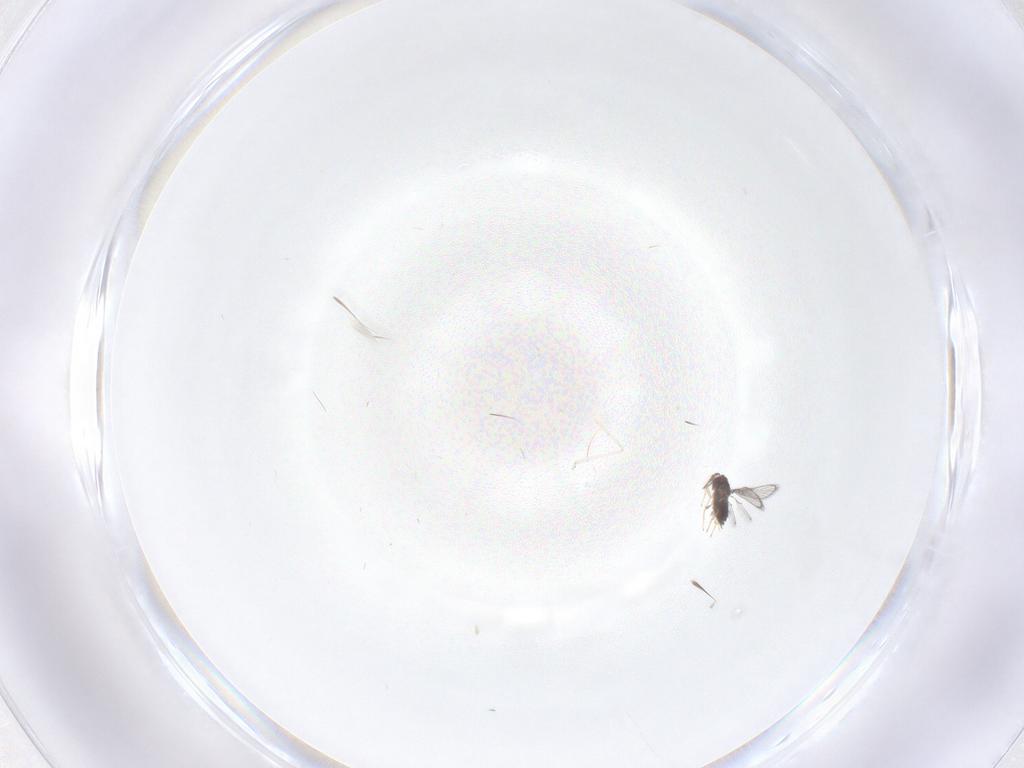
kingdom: Animalia
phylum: Arthropoda
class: Insecta
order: Hymenoptera
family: Trichogrammatidae
